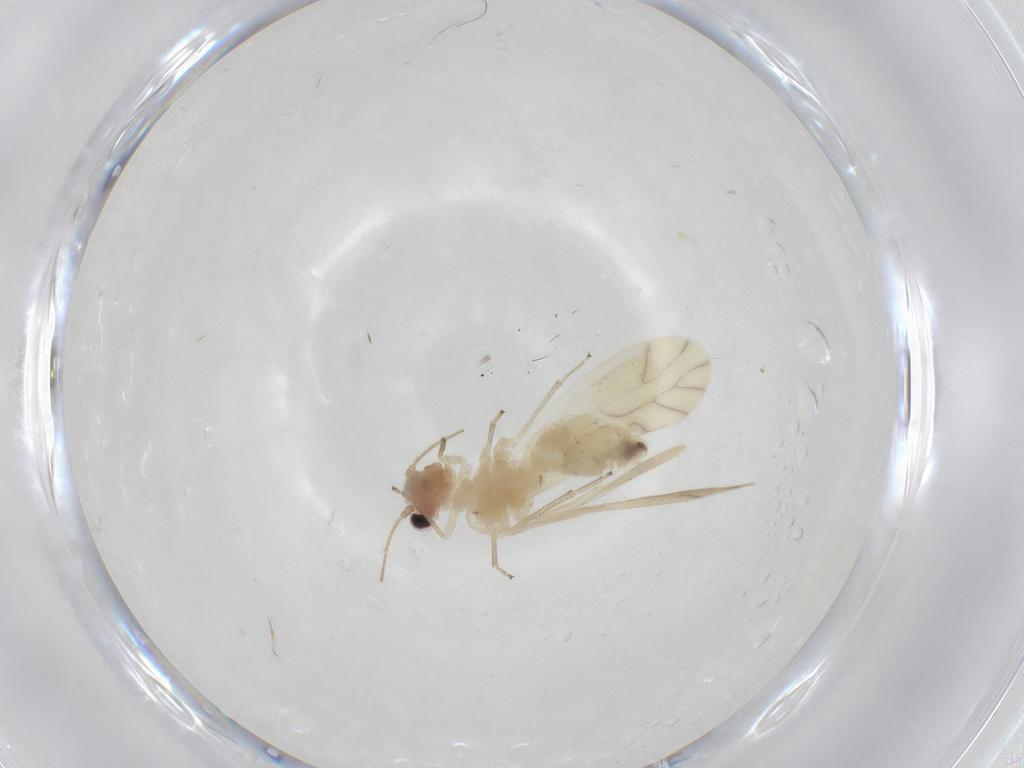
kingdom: Animalia
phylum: Arthropoda
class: Insecta
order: Psocodea
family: Caeciliusidae
